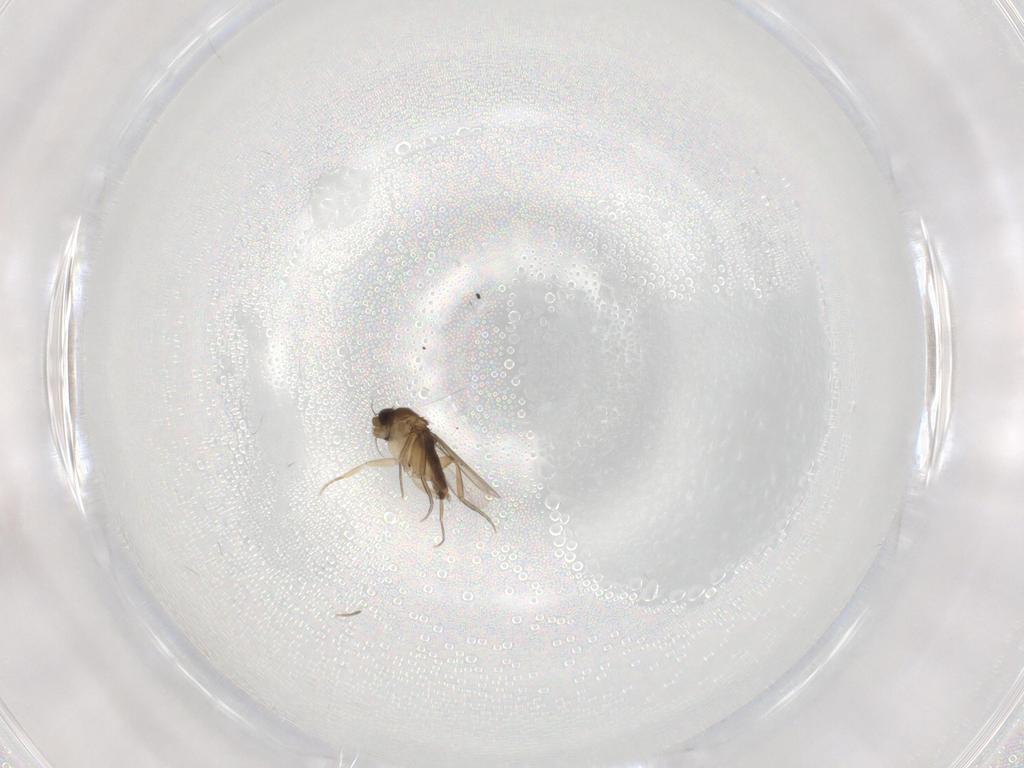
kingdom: Animalia
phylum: Arthropoda
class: Insecta
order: Diptera
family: Phoridae
